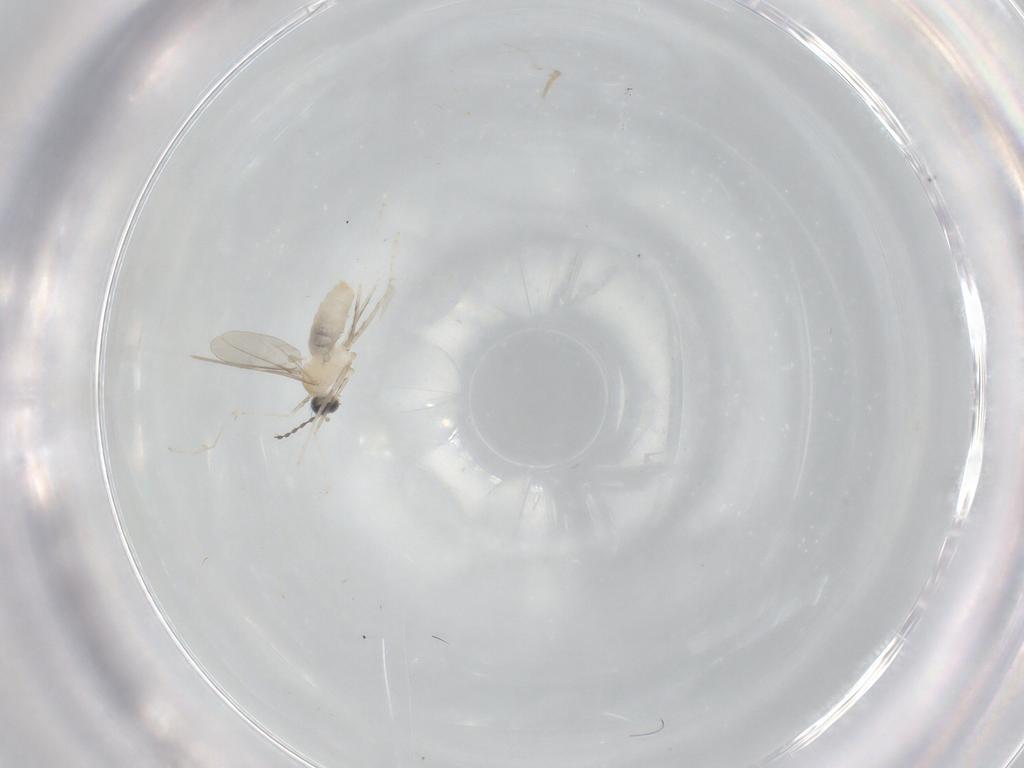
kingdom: Animalia
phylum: Arthropoda
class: Insecta
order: Diptera
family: Cecidomyiidae
